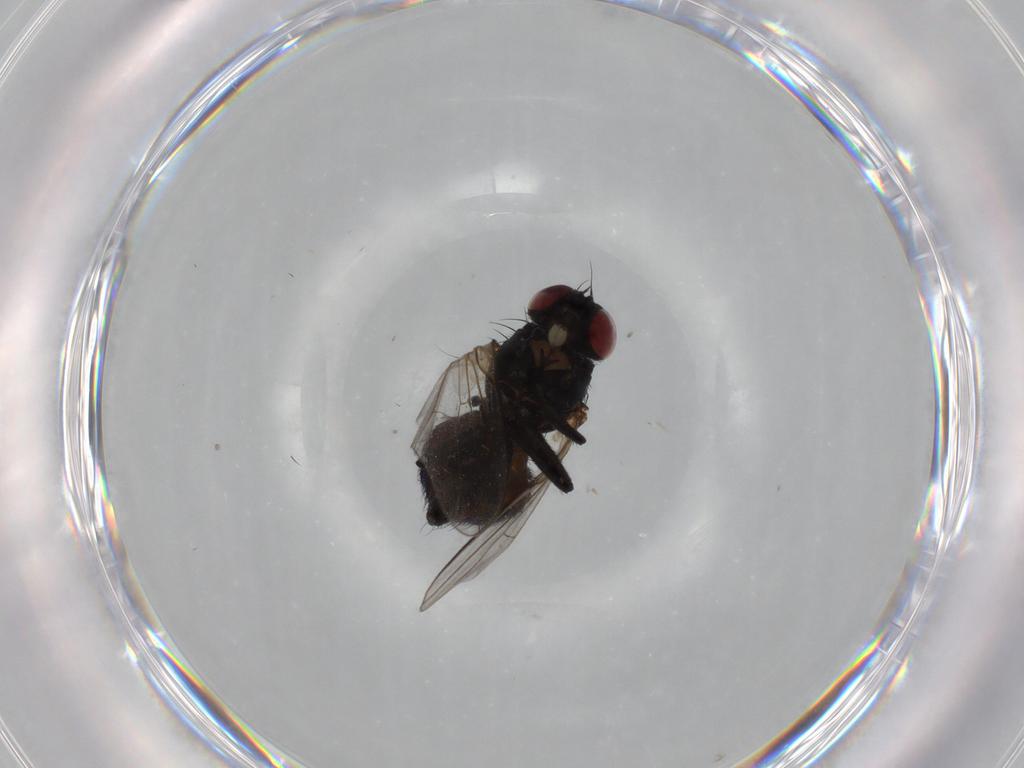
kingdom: Animalia
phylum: Arthropoda
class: Insecta
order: Diptera
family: Agromyzidae
